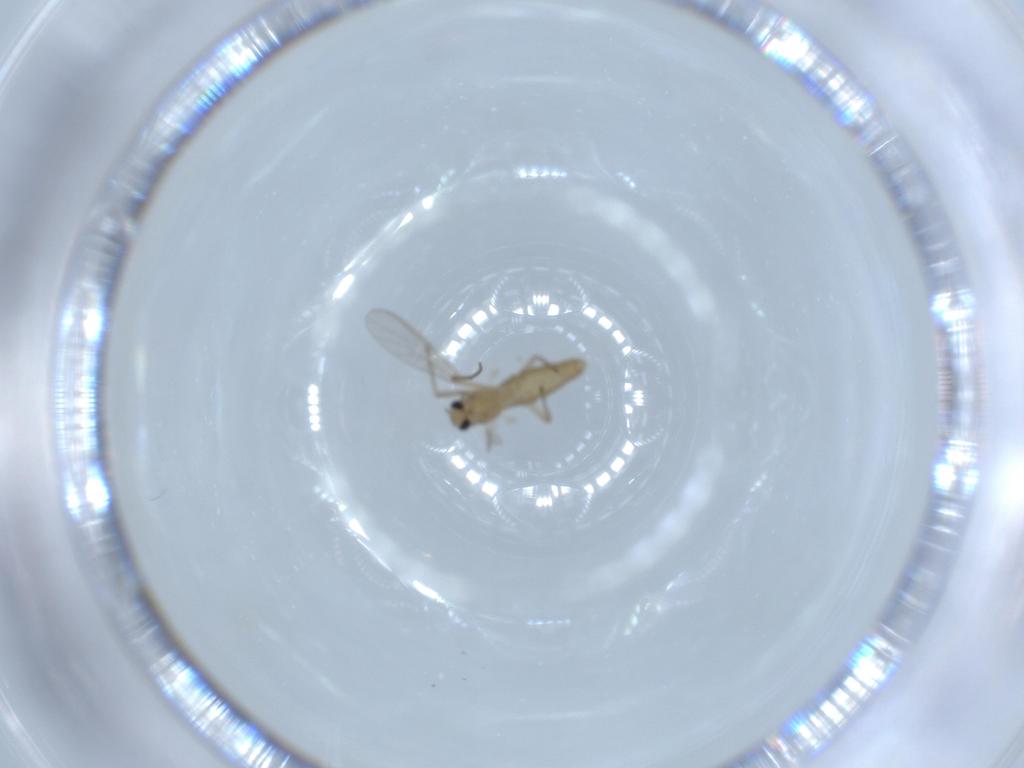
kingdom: Animalia
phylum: Arthropoda
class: Insecta
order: Diptera
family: Chironomidae
